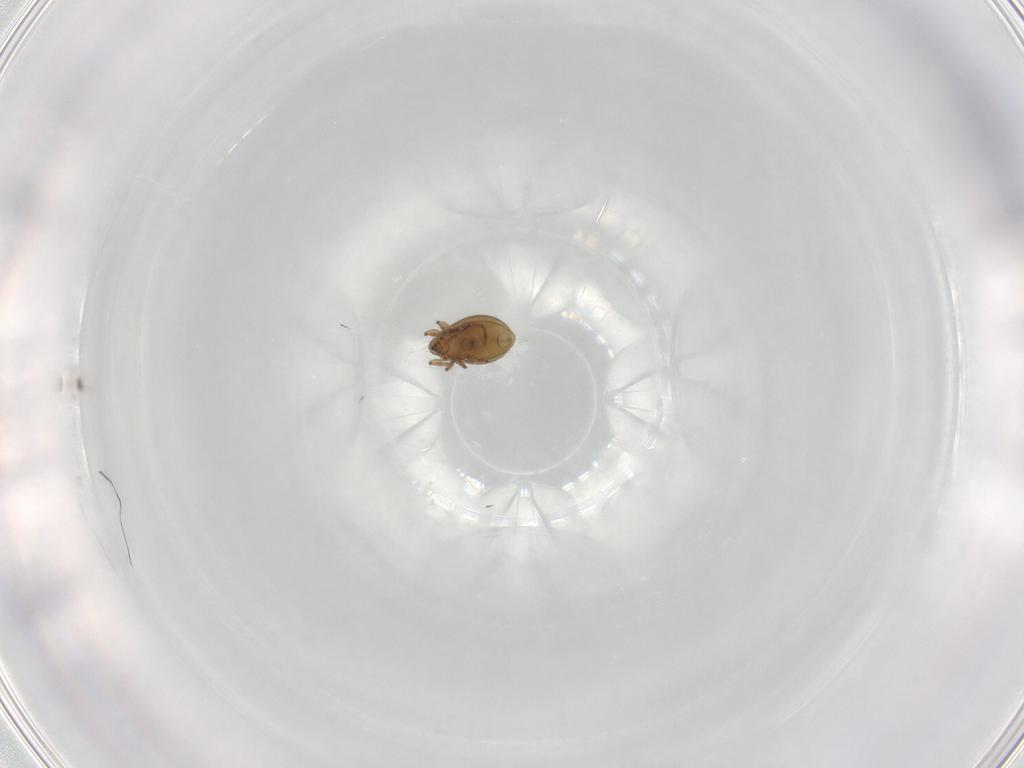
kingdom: Animalia
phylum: Arthropoda
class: Arachnida
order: Sarcoptiformes
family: Oribatulidae
